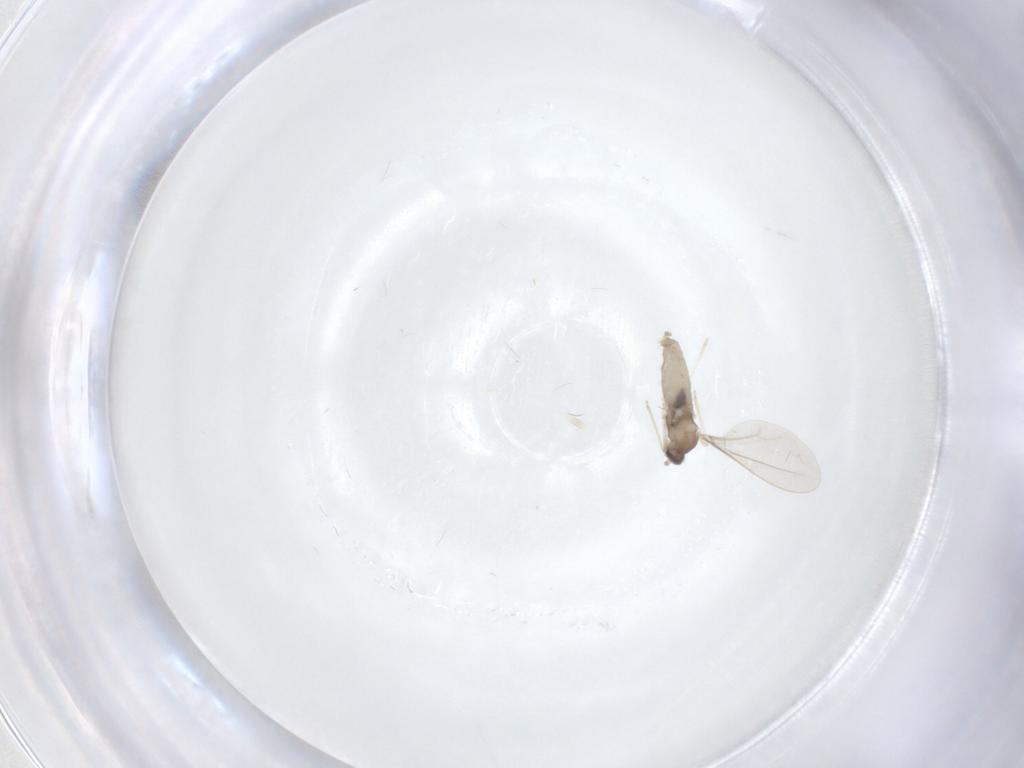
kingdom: Animalia
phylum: Arthropoda
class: Insecta
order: Diptera
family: Cecidomyiidae
